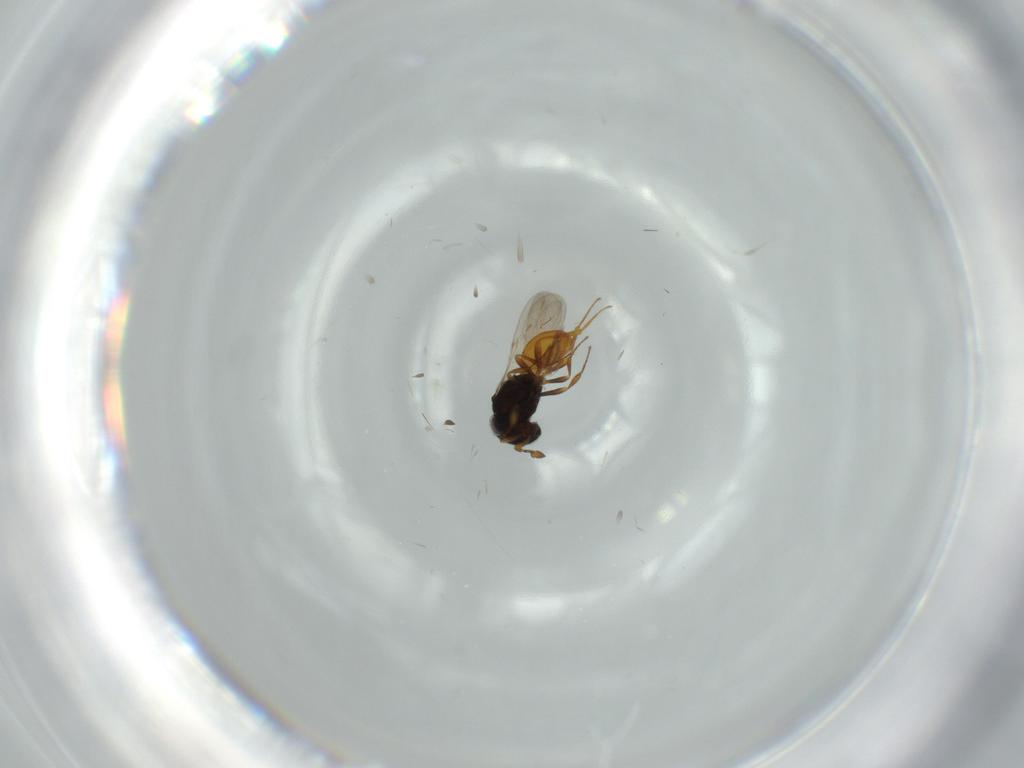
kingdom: Animalia
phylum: Arthropoda
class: Insecta
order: Hymenoptera
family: Scelionidae
